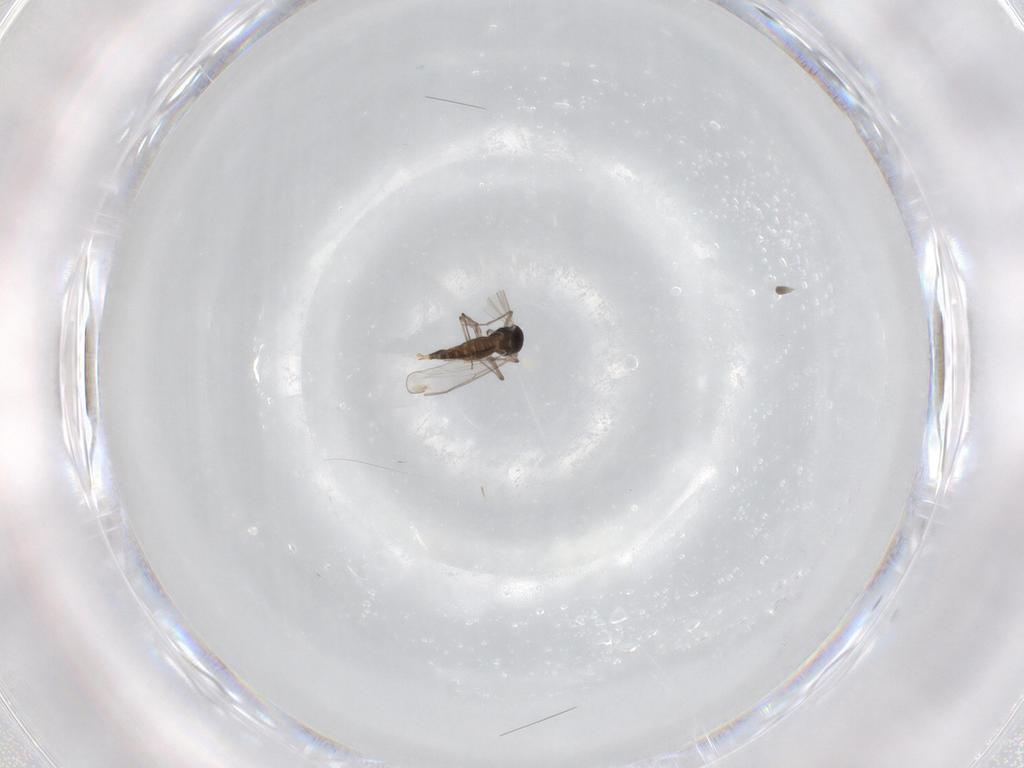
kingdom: Animalia
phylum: Arthropoda
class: Insecta
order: Diptera
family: Chironomidae
